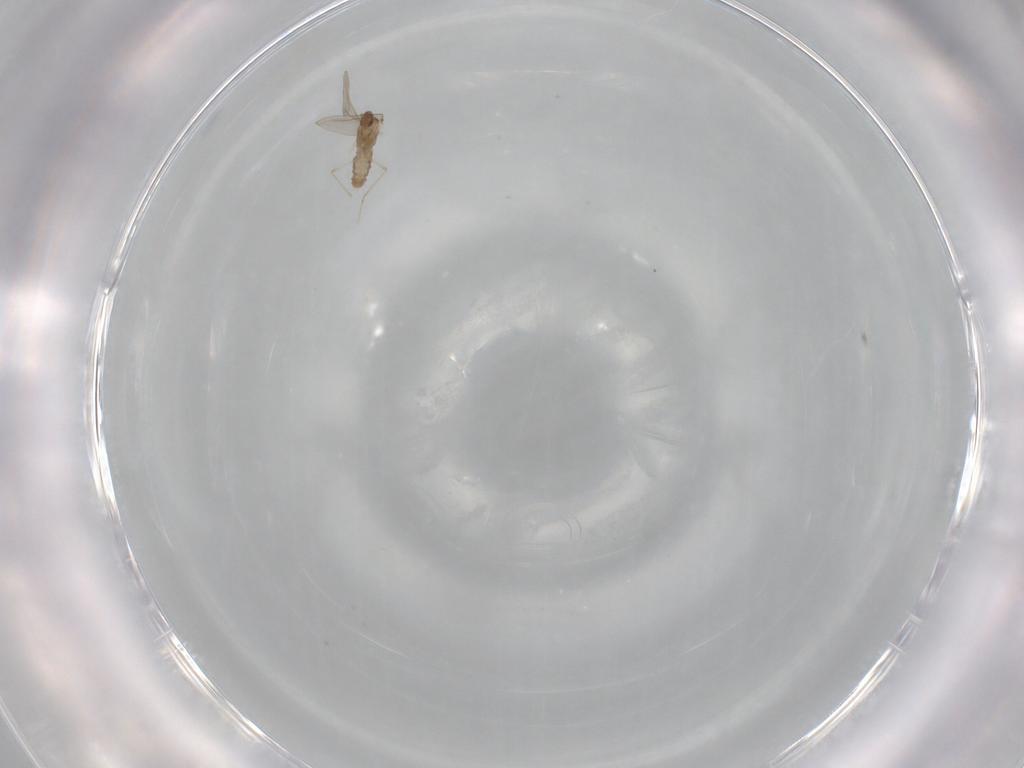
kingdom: Animalia
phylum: Arthropoda
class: Insecta
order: Diptera
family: Syrphidae
